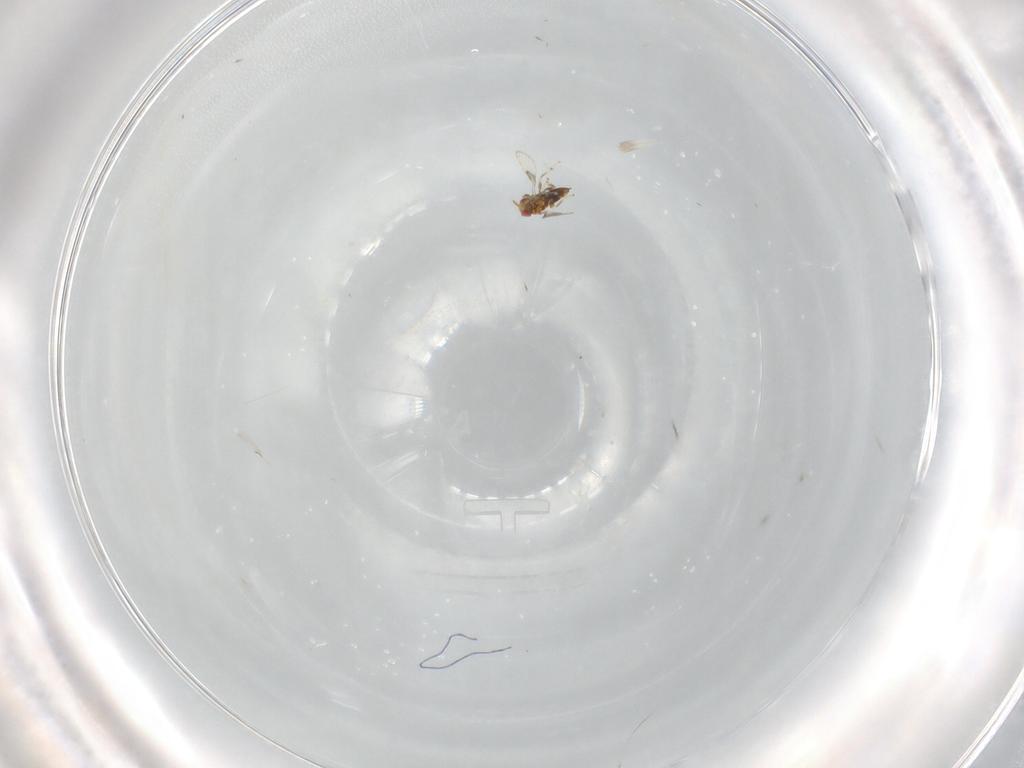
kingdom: Animalia
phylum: Arthropoda
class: Insecta
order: Hymenoptera
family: Trichogrammatidae
